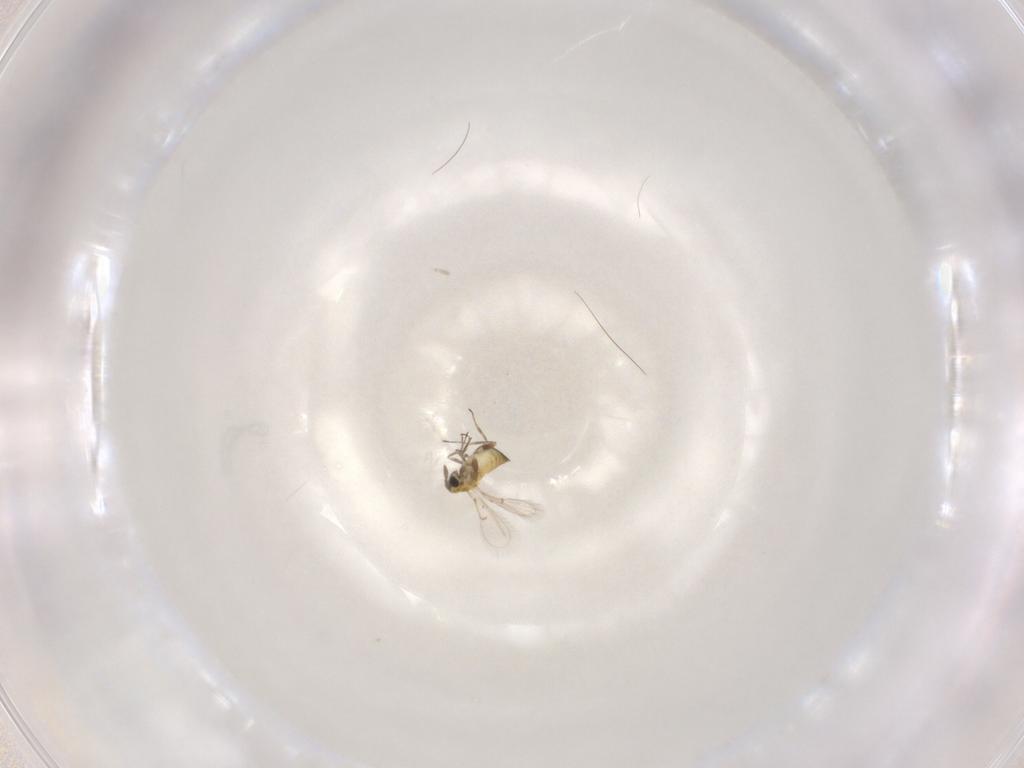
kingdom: Animalia
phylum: Arthropoda
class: Insecta
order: Hymenoptera
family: Trichogrammatidae
